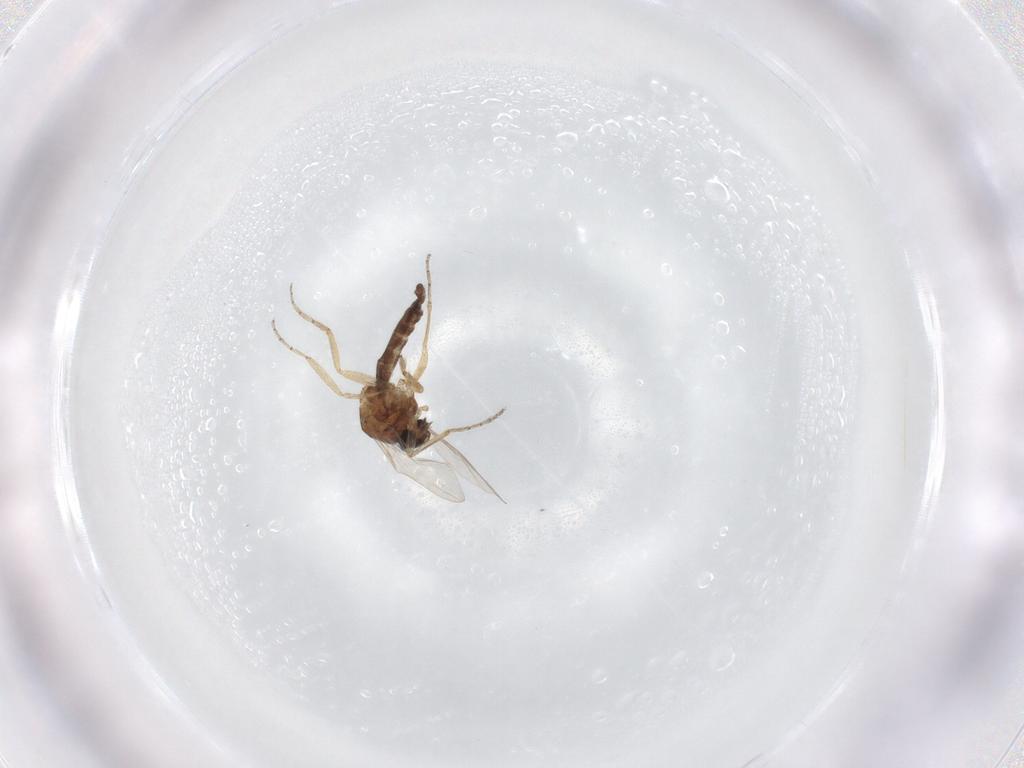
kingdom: Animalia
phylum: Arthropoda
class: Insecta
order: Diptera
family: Ceratopogonidae
